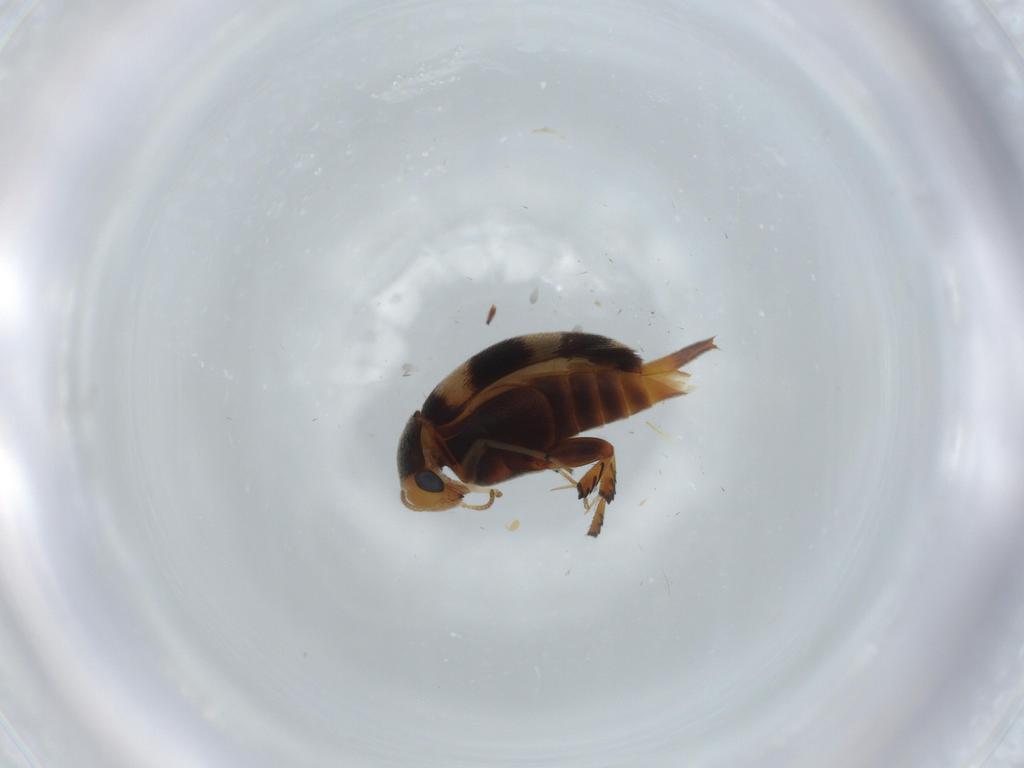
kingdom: Animalia
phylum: Arthropoda
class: Insecta
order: Coleoptera
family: Mordellidae
